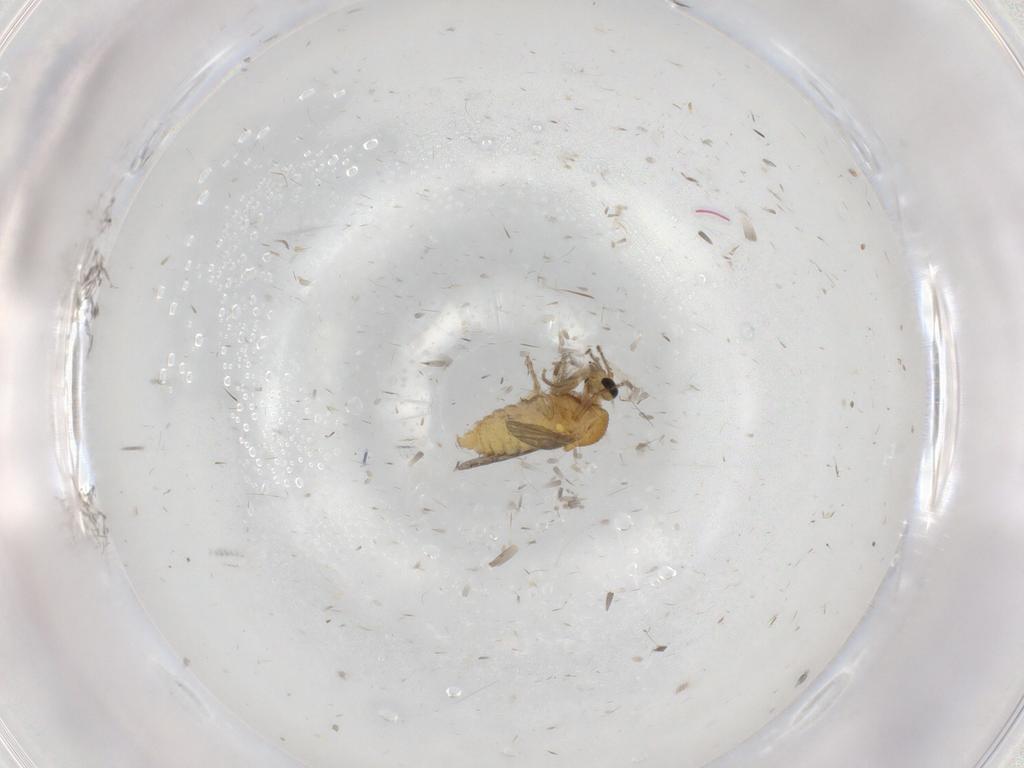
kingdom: Animalia
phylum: Arthropoda
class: Insecta
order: Diptera
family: Ceratopogonidae
